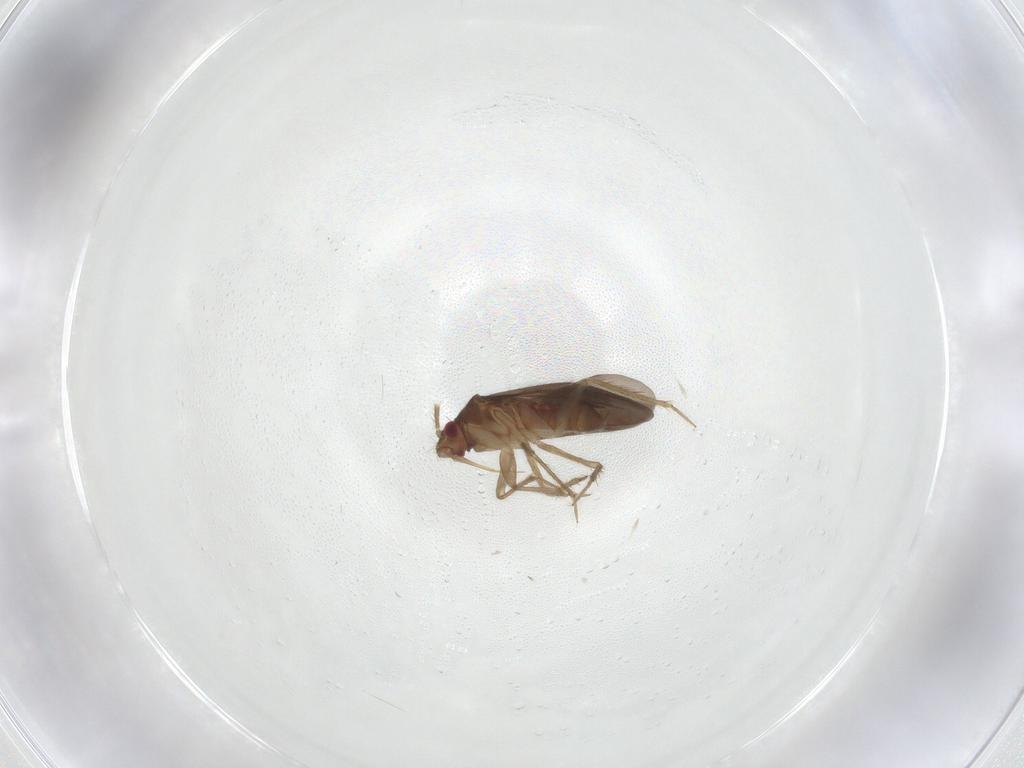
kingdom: Animalia
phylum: Arthropoda
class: Insecta
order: Hemiptera
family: Ceratocombidae
